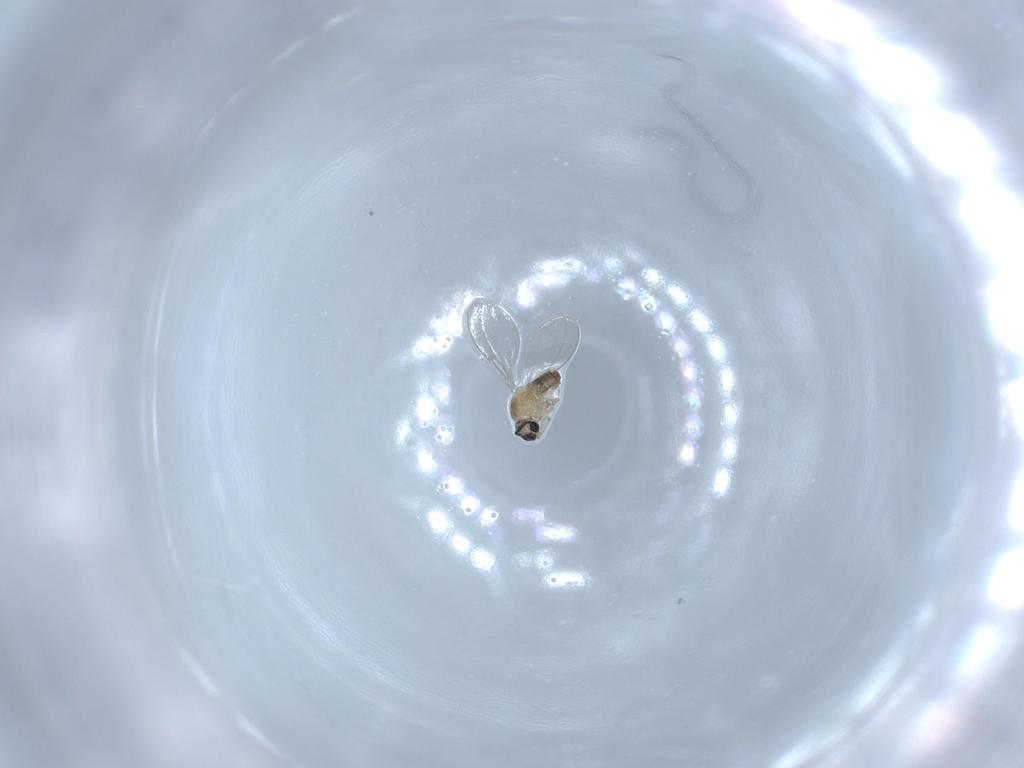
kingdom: Animalia
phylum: Arthropoda
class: Insecta
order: Diptera
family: Cecidomyiidae
